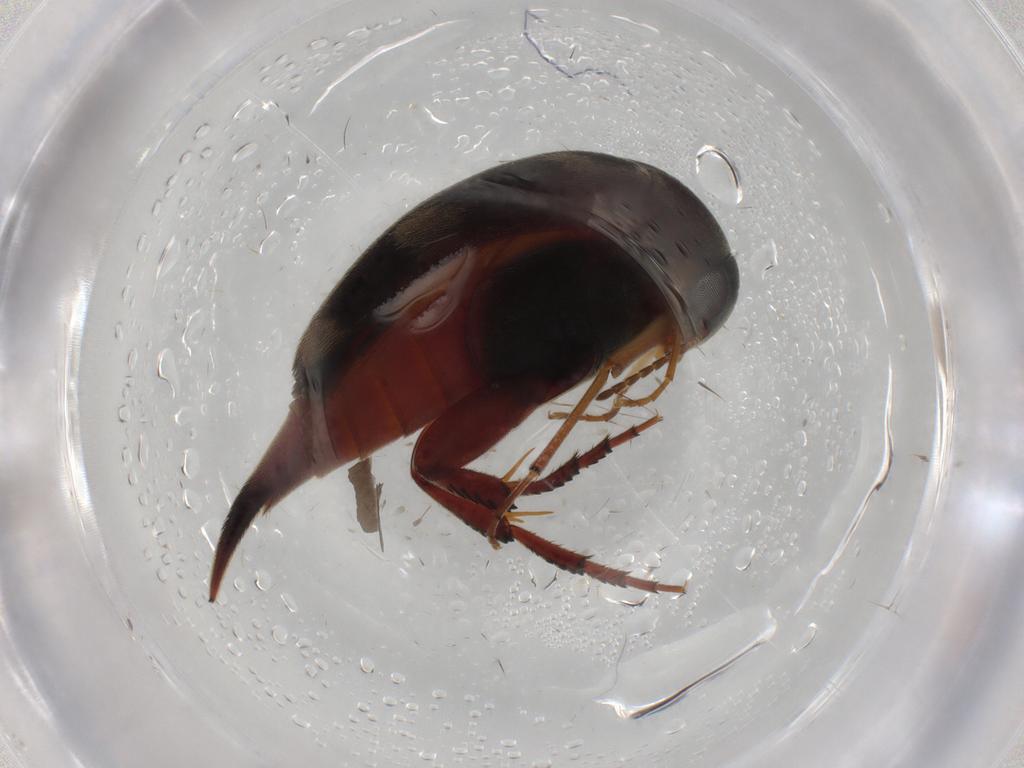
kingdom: Animalia
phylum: Arthropoda
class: Insecta
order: Coleoptera
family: Mordellidae
